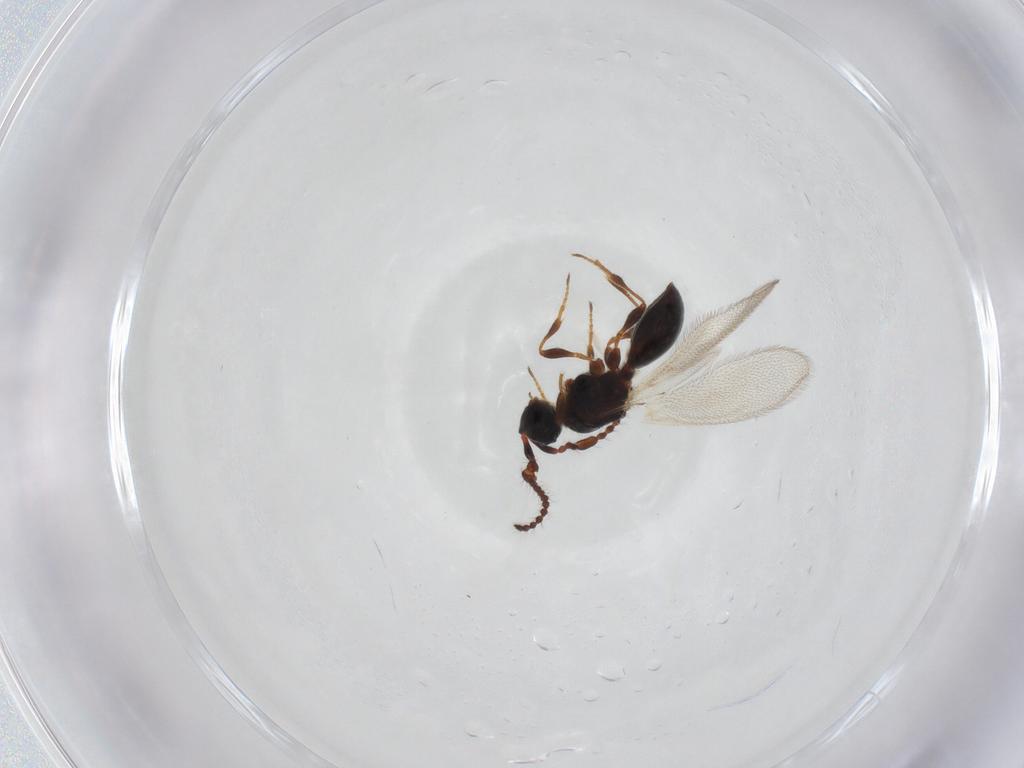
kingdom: Animalia
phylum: Arthropoda
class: Insecta
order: Hymenoptera
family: Diapriidae
